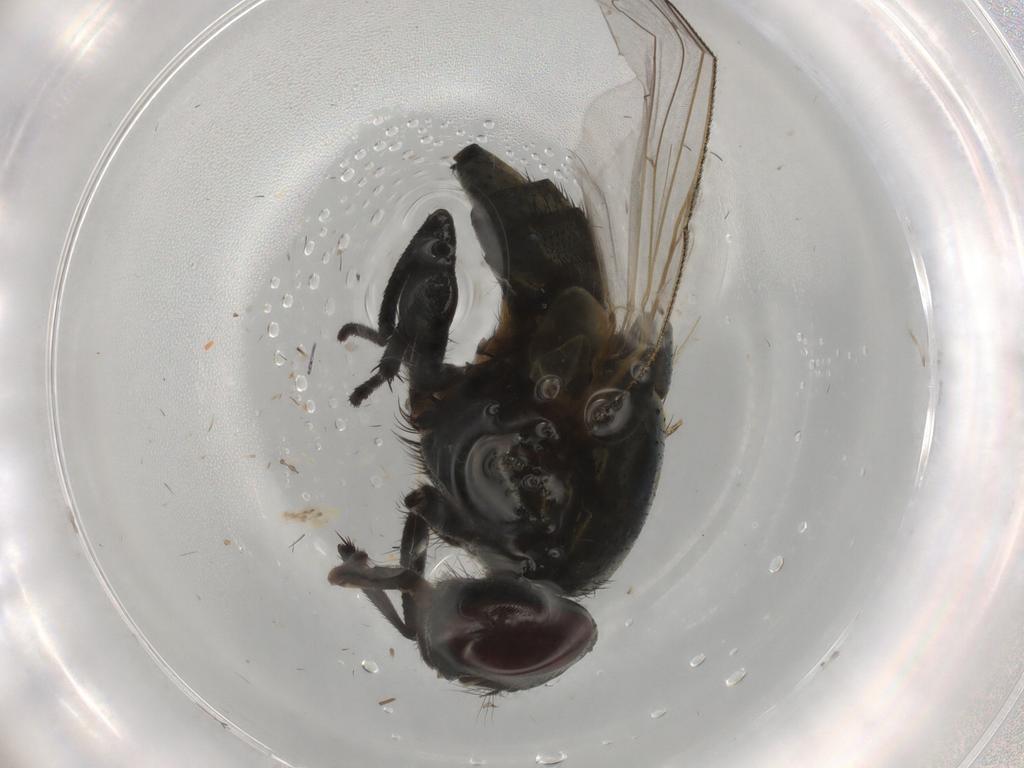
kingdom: Animalia
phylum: Arthropoda
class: Insecta
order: Diptera
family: Muscidae
